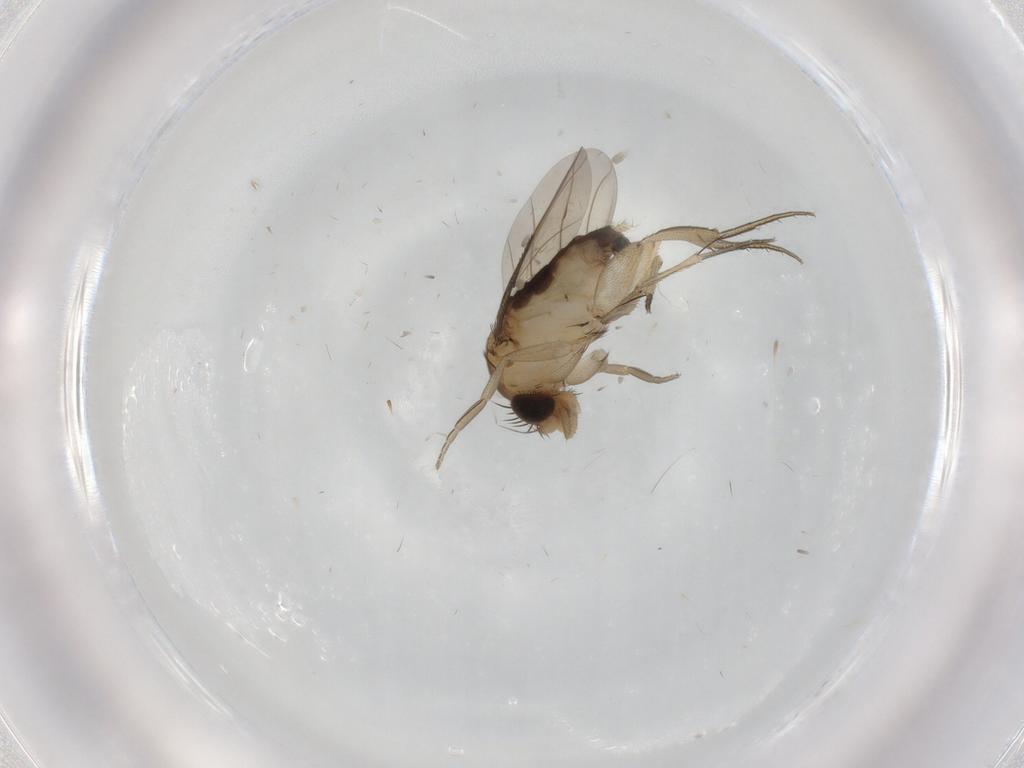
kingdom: Animalia
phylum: Arthropoda
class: Insecta
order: Diptera
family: Phoridae
